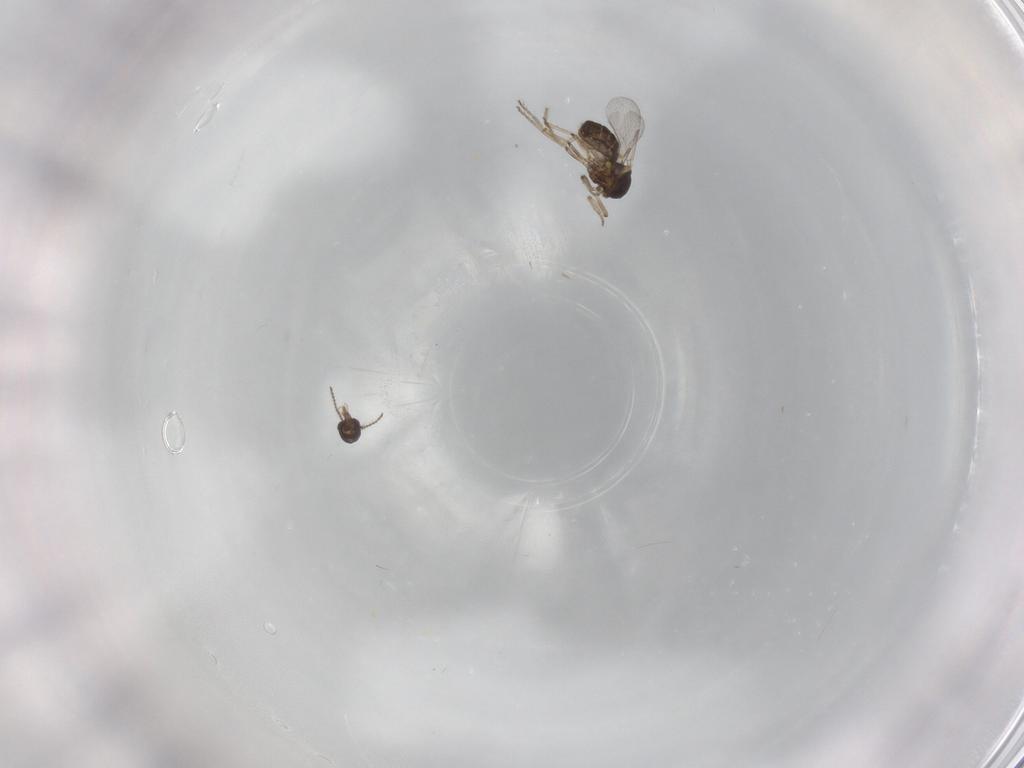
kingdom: Animalia
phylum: Arthropoda
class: Insecta
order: Diptera
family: Ceratopogonidae
